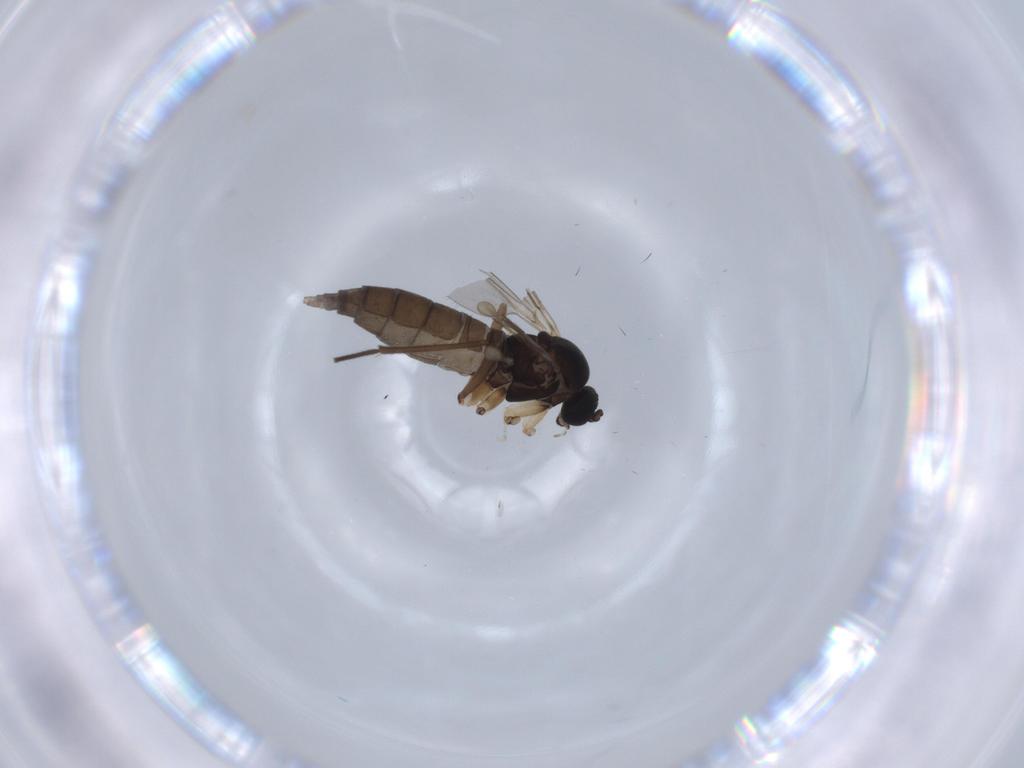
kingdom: Animalia
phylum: Arthropoda
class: Insecta
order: Diptera
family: Sciaridae
